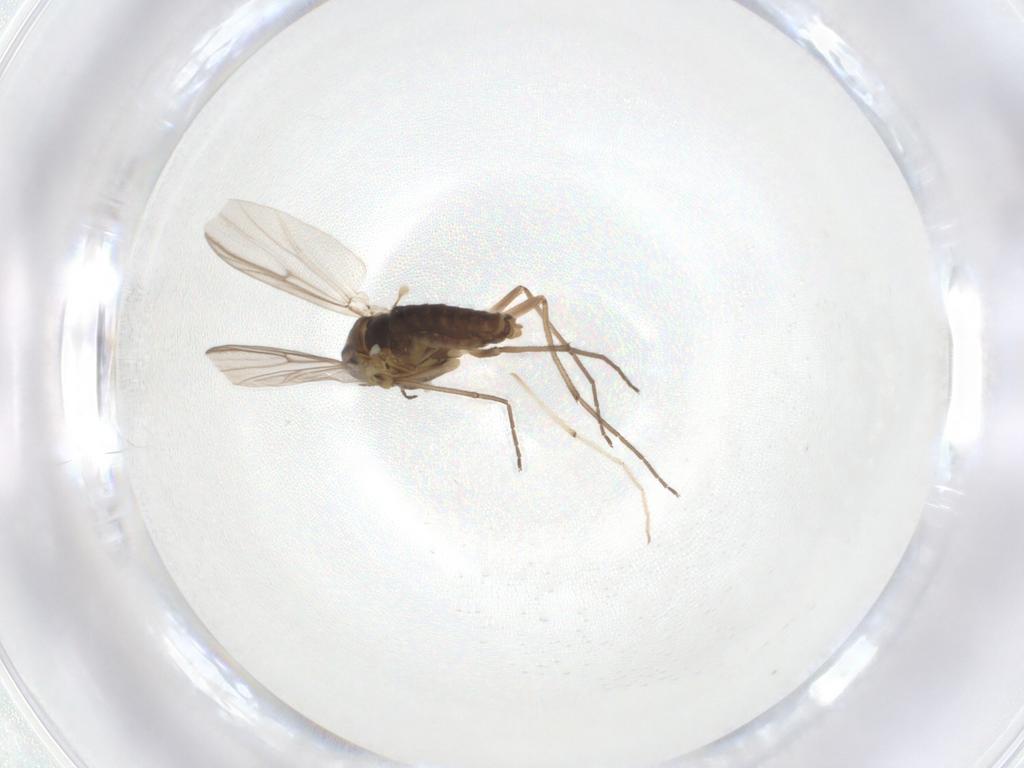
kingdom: Animalia
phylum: Arthropoda
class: Insecta
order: Diptera
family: Chironomidae
